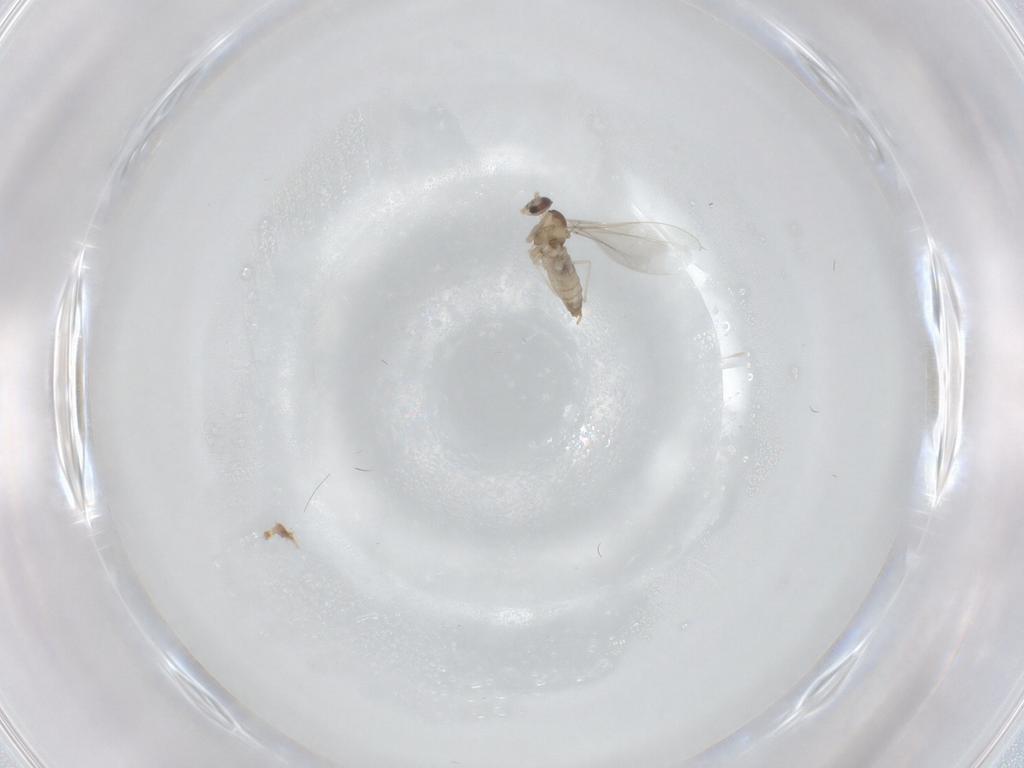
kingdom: Animalia
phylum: Arthropoda
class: Insecta
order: Diptera
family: Cecidomyiidae
